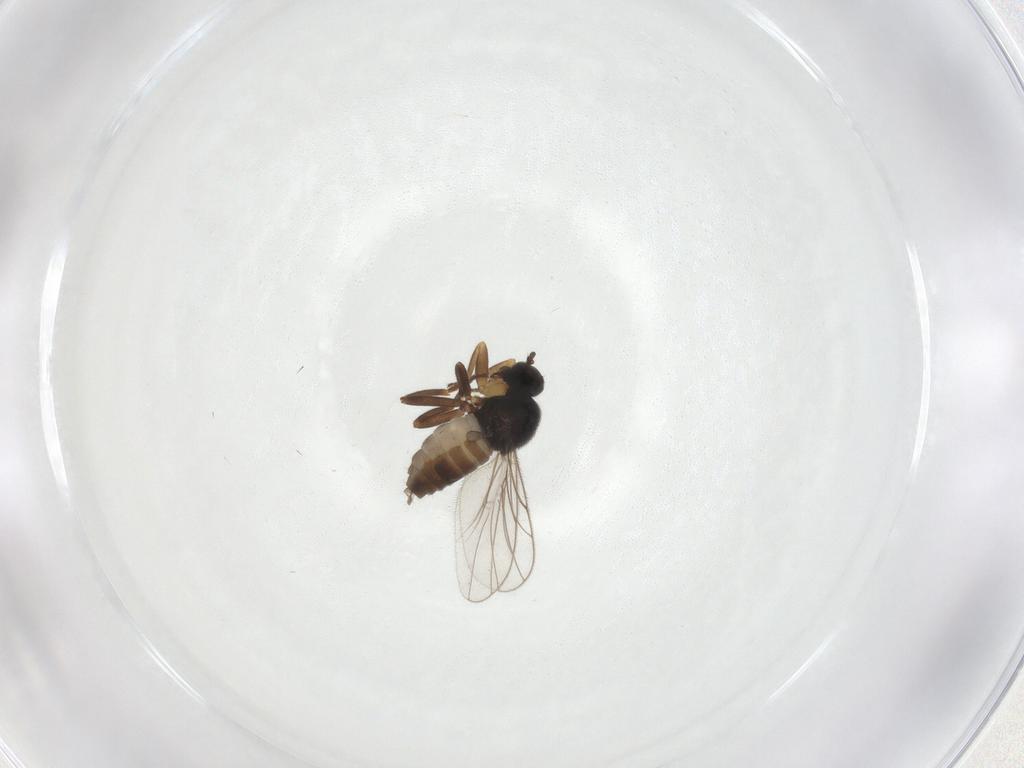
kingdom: Animalia
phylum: Arthropoda
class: Insecta
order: Diptera
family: Hybotidae
